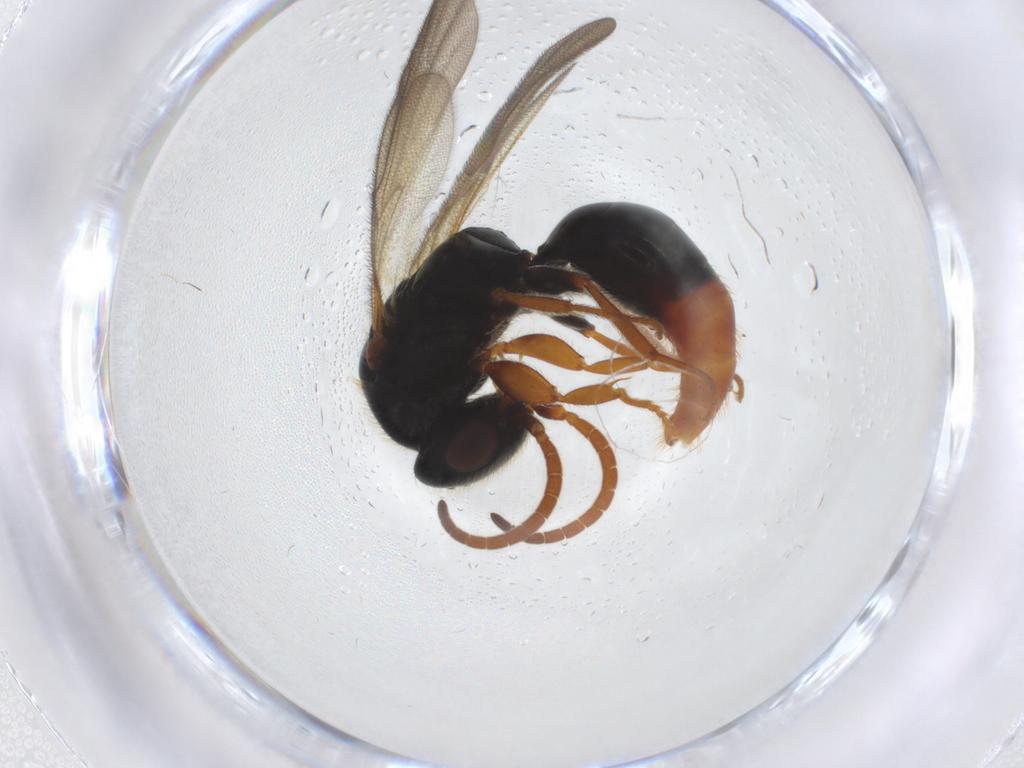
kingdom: Animalia
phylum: Arthropoda
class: Insecta
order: Hymenoptera
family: Bethylidae
